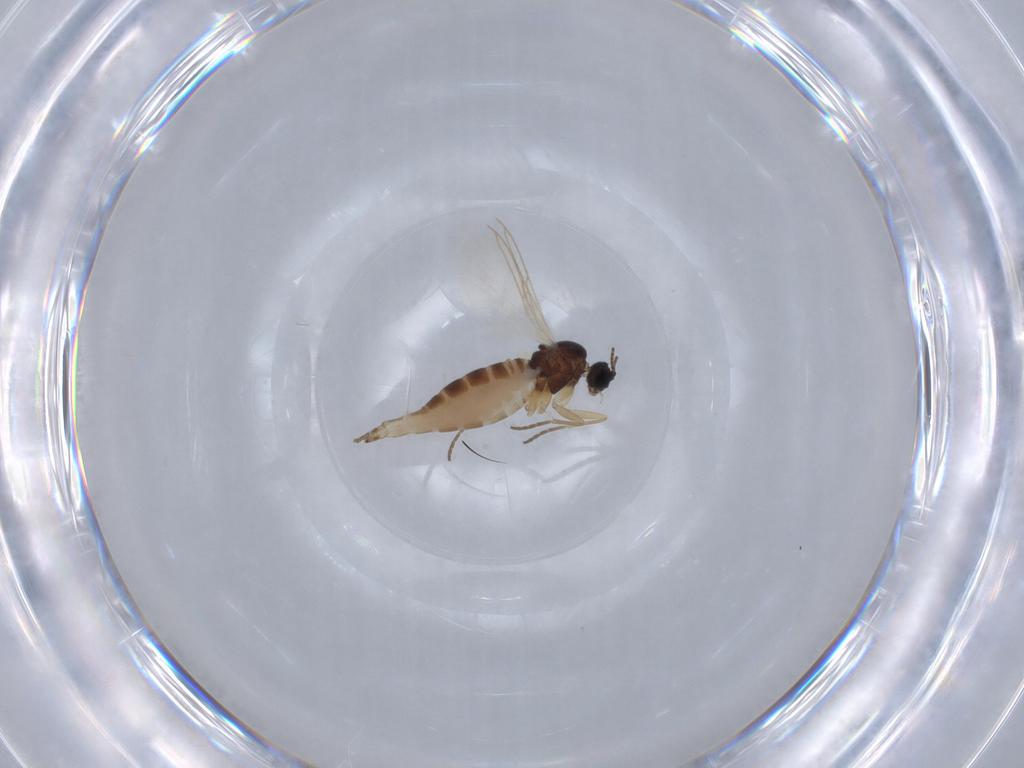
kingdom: Animalia
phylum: Arthropoda
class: Insecta
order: Diptera
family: Sciaridae
